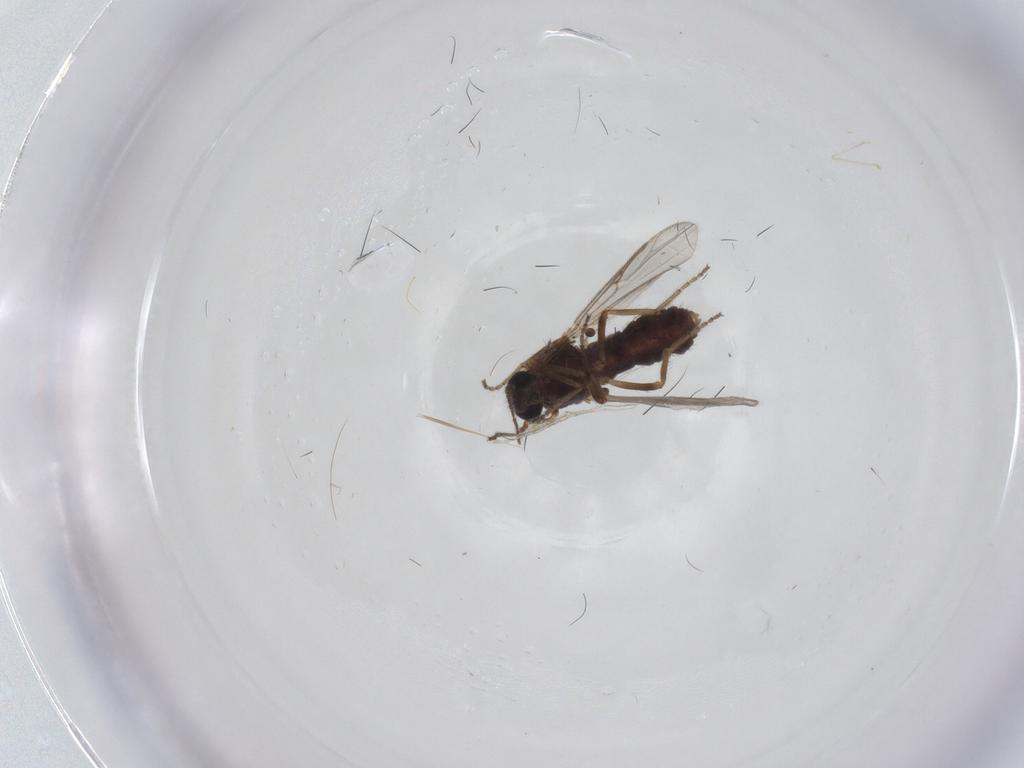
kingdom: Animalia
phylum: Arthropoda
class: Insecta
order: Diptera
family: Ceratopogonidae
